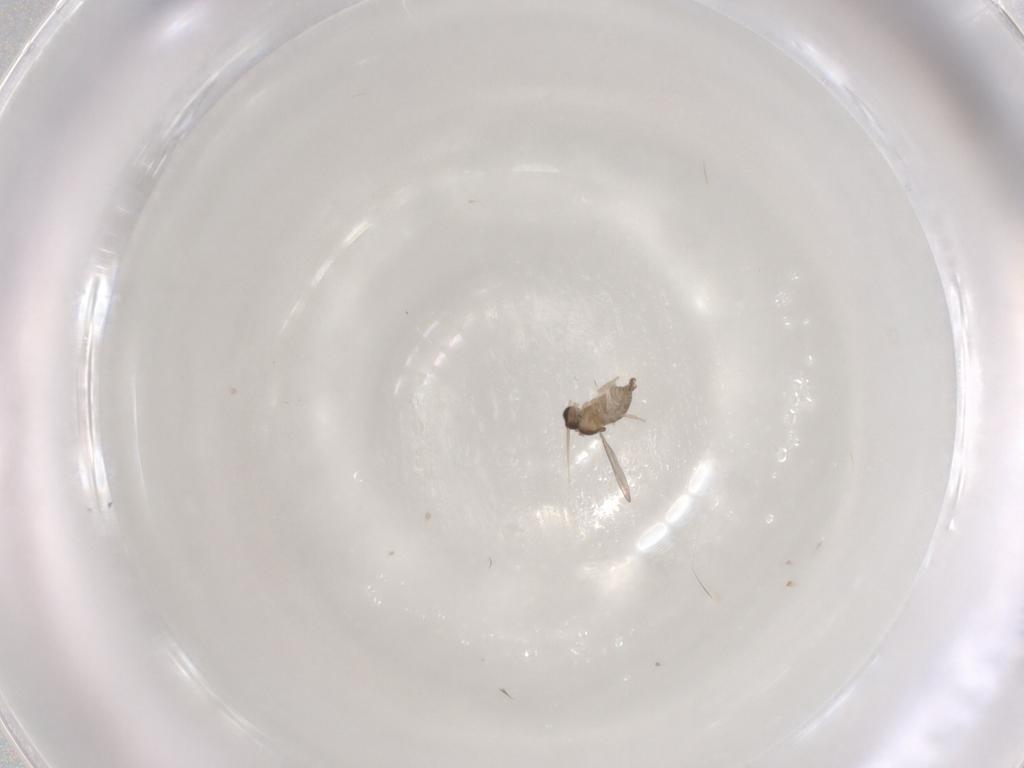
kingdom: Animalia
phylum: Arthropoda
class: Insecta
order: Diptera
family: Cecidomyiidae
